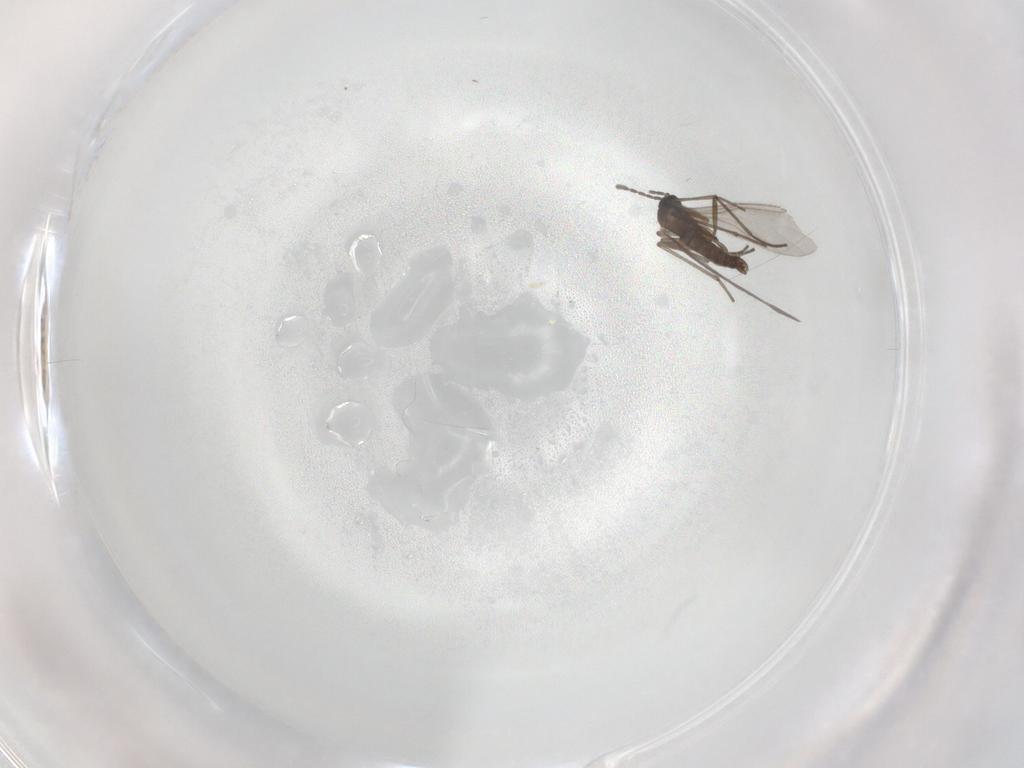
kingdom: Animalia
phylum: Arthropoda
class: Insecta
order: Diptera
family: Sciaridae
